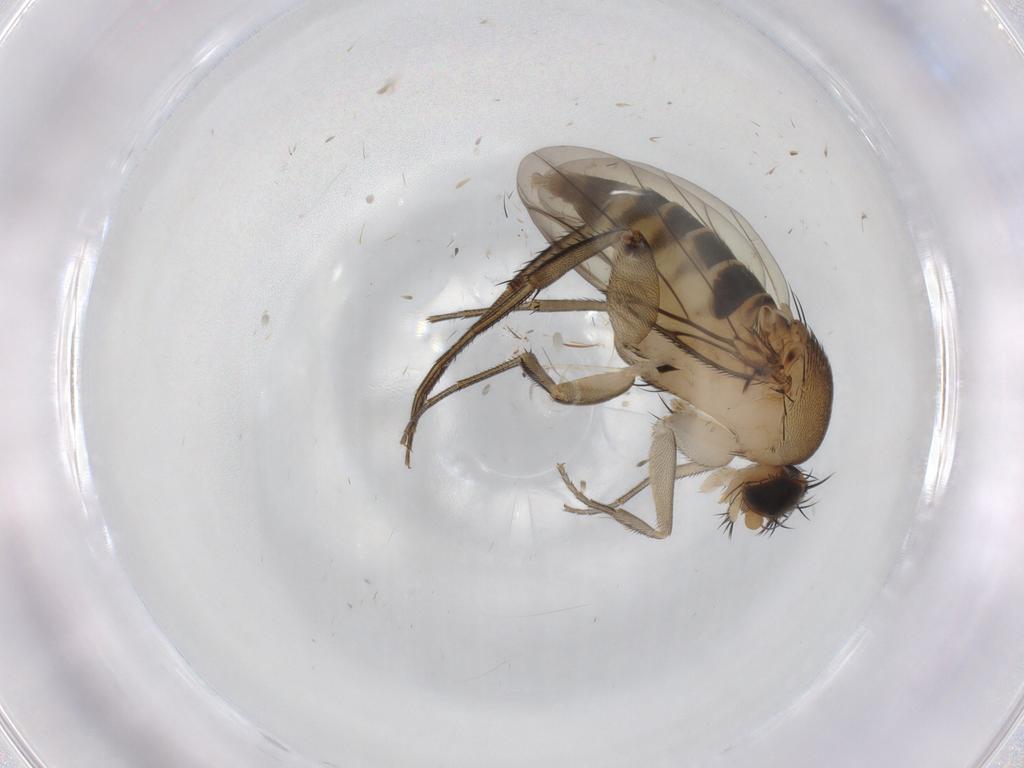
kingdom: Animalia
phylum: Arthropoda
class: Insecta
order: Diptera
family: Phoridae
